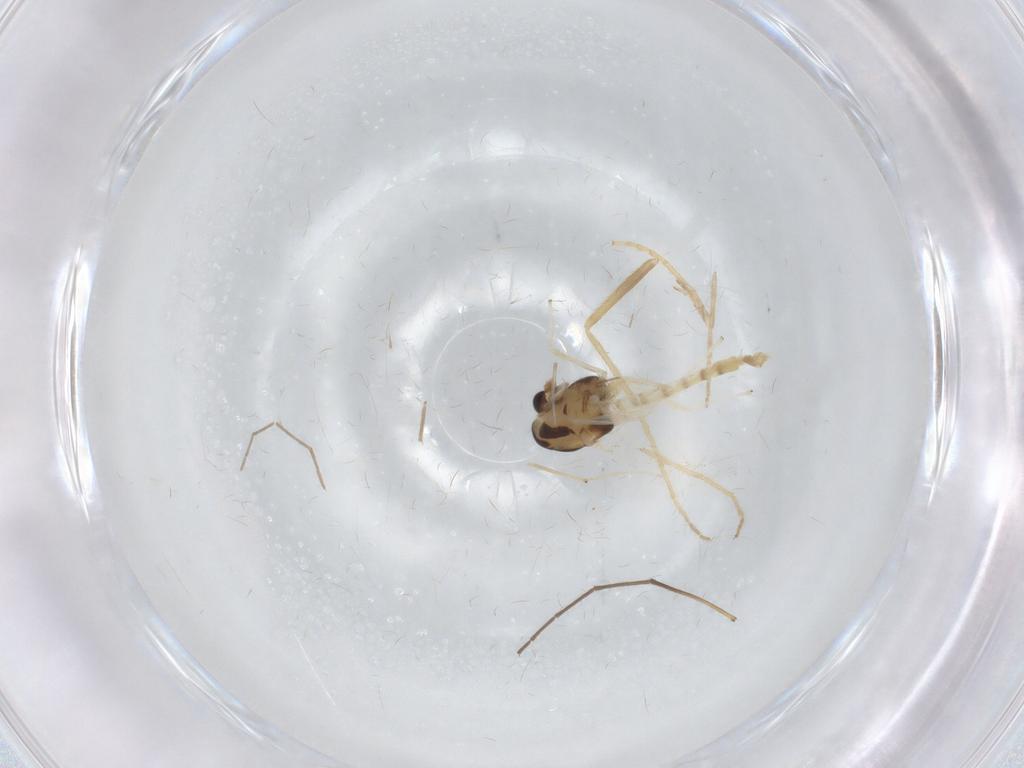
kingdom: Animalia
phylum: Arthropoda
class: Insecta
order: Diptera
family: Chironomidae
